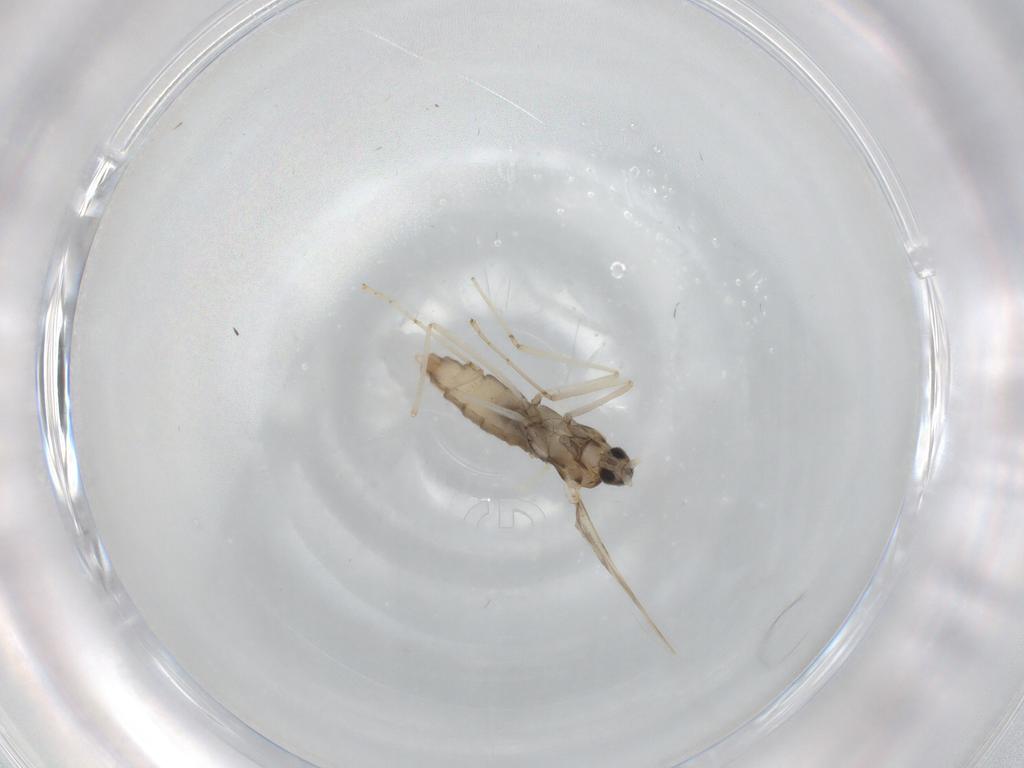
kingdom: Animalia
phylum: Arthropoda
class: Insecta
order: Diptera
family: Cecidomyiidae
